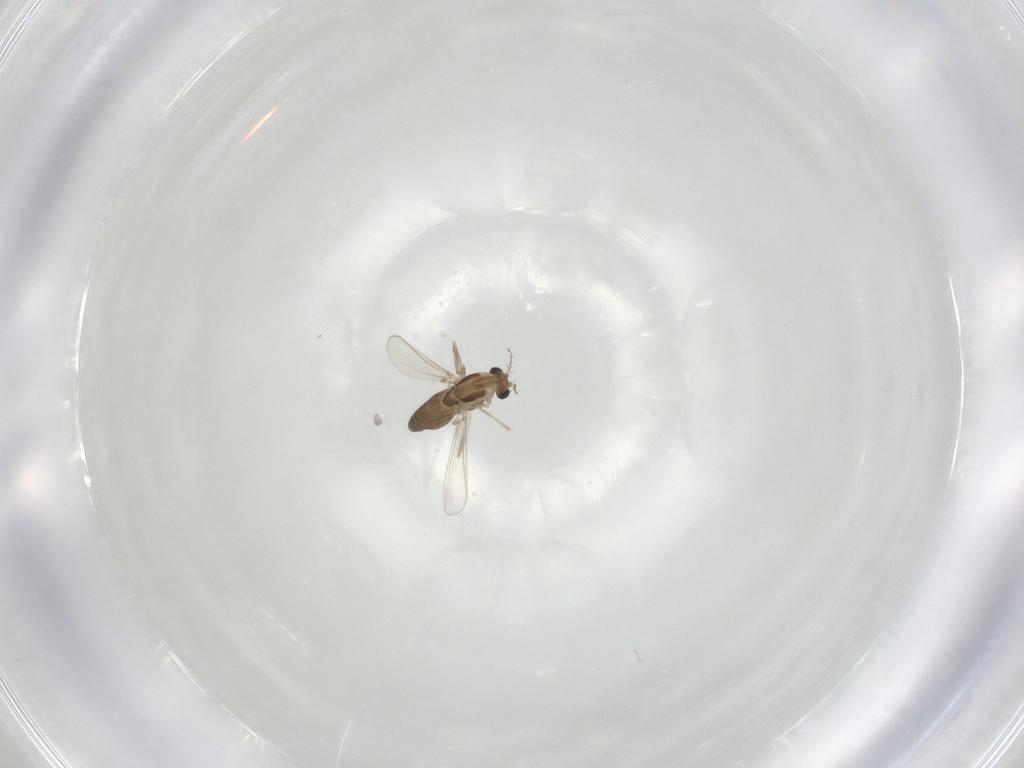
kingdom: Animalia
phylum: Arthropoda
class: Insecta
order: Diptera
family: Chironomidae
